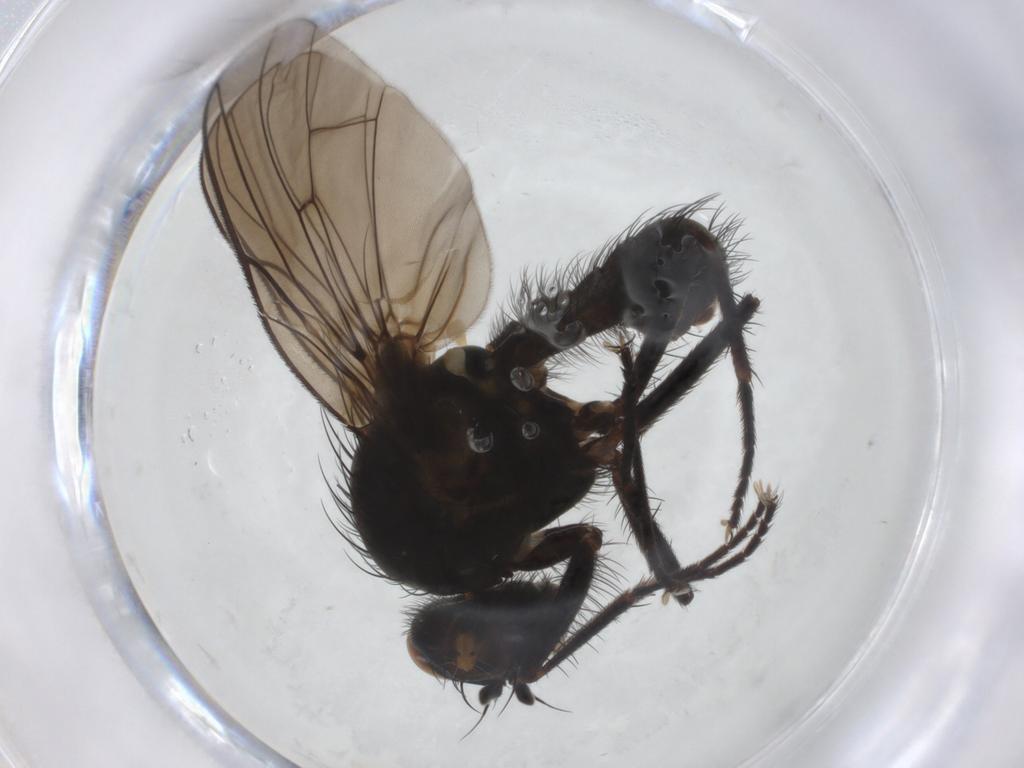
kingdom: Animalia
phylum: Arthropoda
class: Insecta
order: Diptera
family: Anthomyiidae
